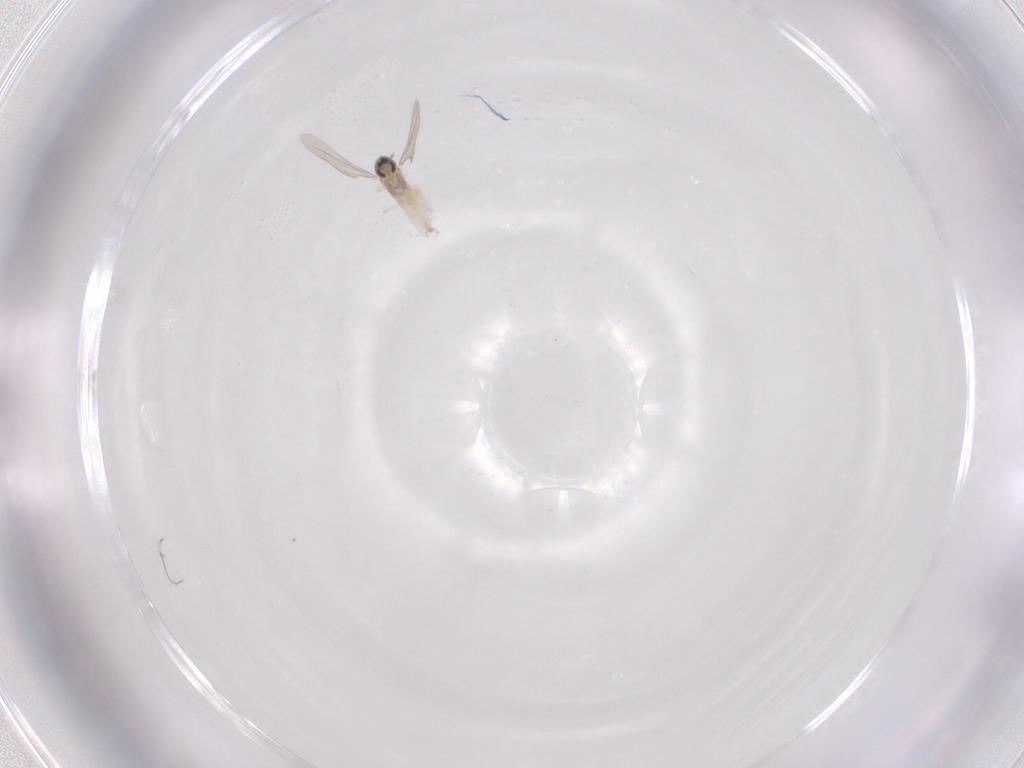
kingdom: Animalia
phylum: Arthropoda
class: Insecta
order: Diptera
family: Cecidomyiidae
